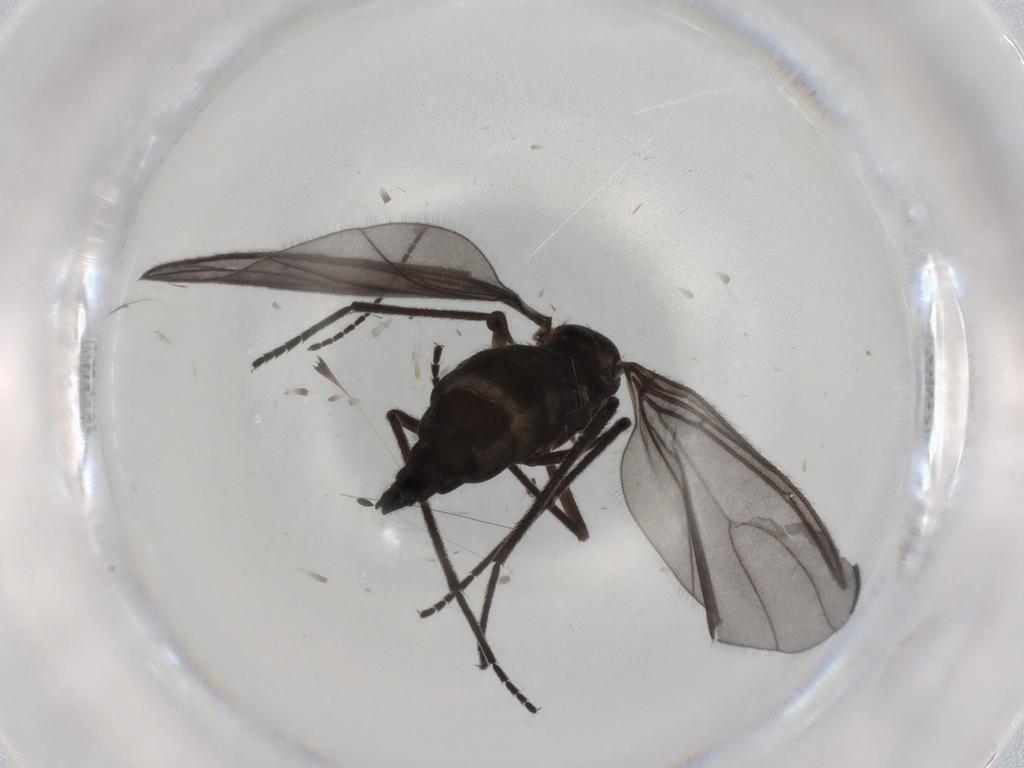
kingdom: Animalia
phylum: Arthropoda
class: Insecta
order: Diptera
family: Sciaridae
